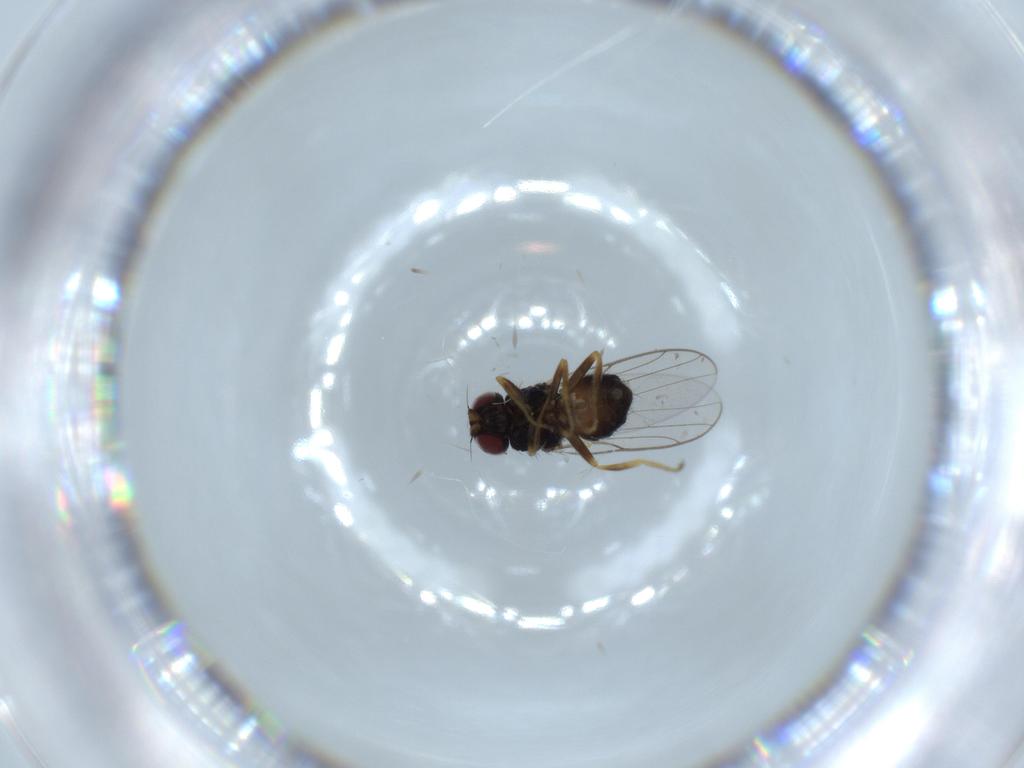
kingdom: Animalia
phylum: Arthropoda
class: Insecta
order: Diptera
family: Chloropidae
